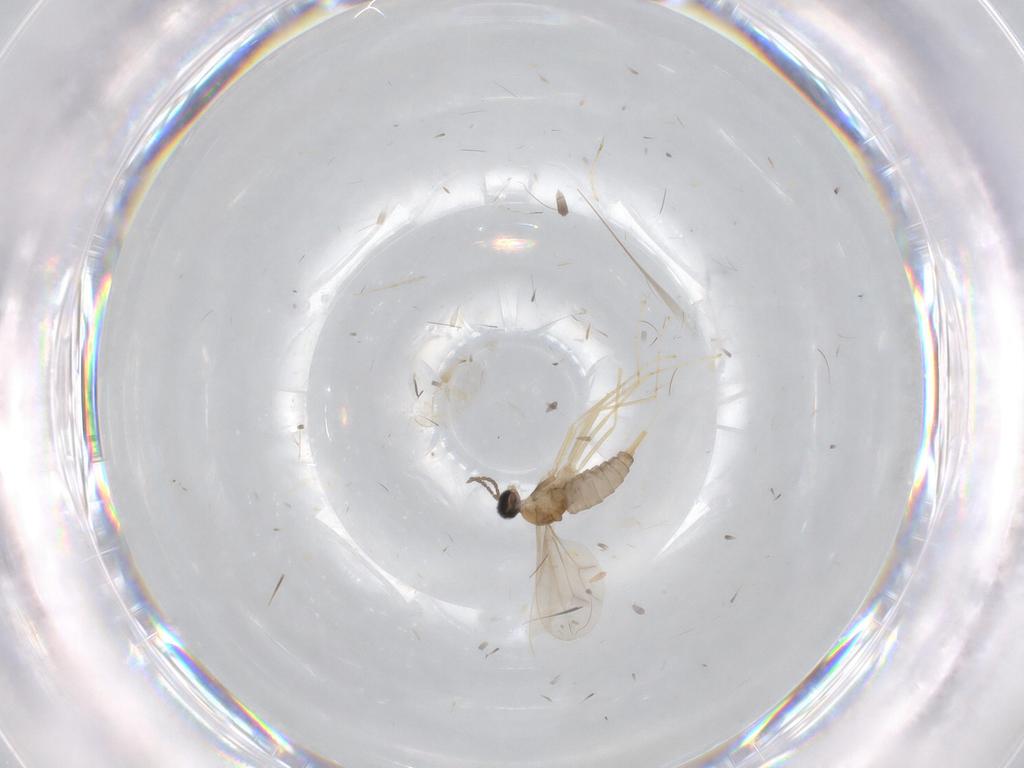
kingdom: Animalia
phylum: Arthropoda
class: Insecta
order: Diptera
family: Cecidomyiidae
